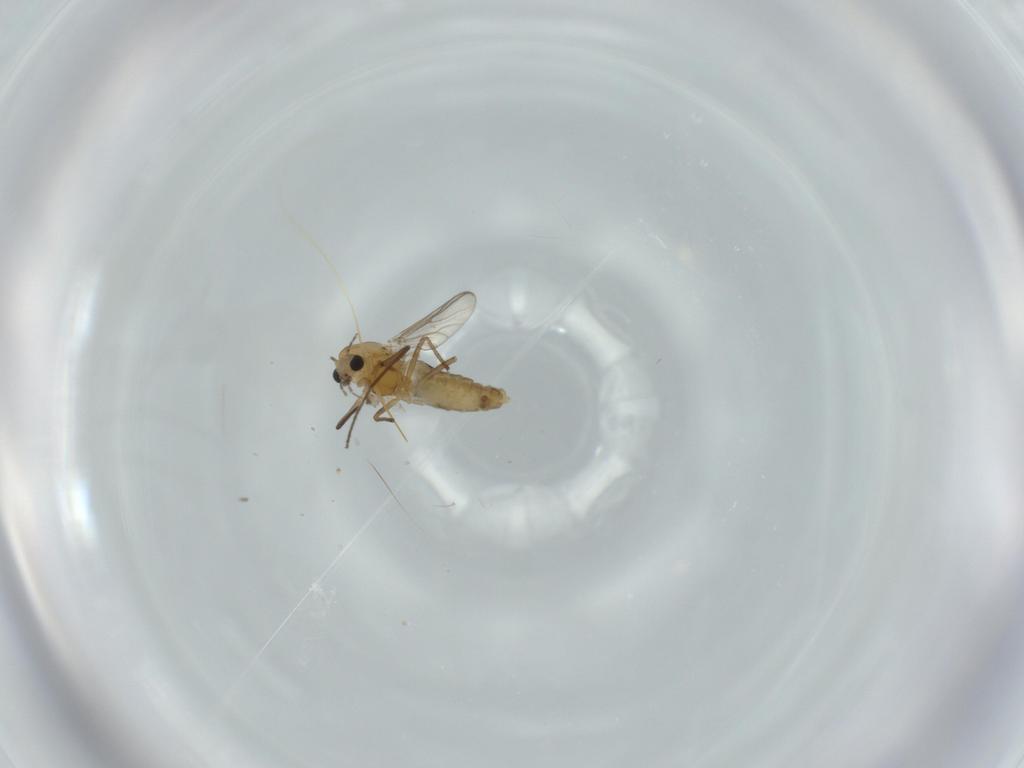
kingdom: Animalia
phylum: Arthropoda
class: Insecta
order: Diptera
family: Chironomidae
